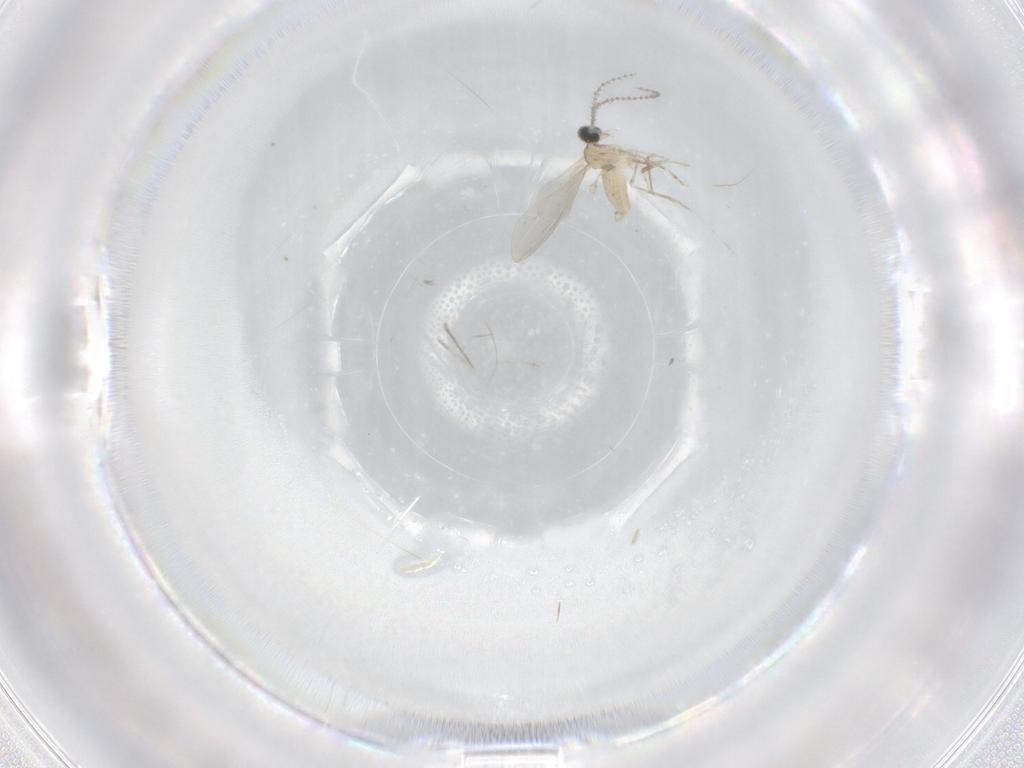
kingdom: Animalia
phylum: Arthropoda
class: Insecta
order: Diptera
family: Cecidomyiidae
